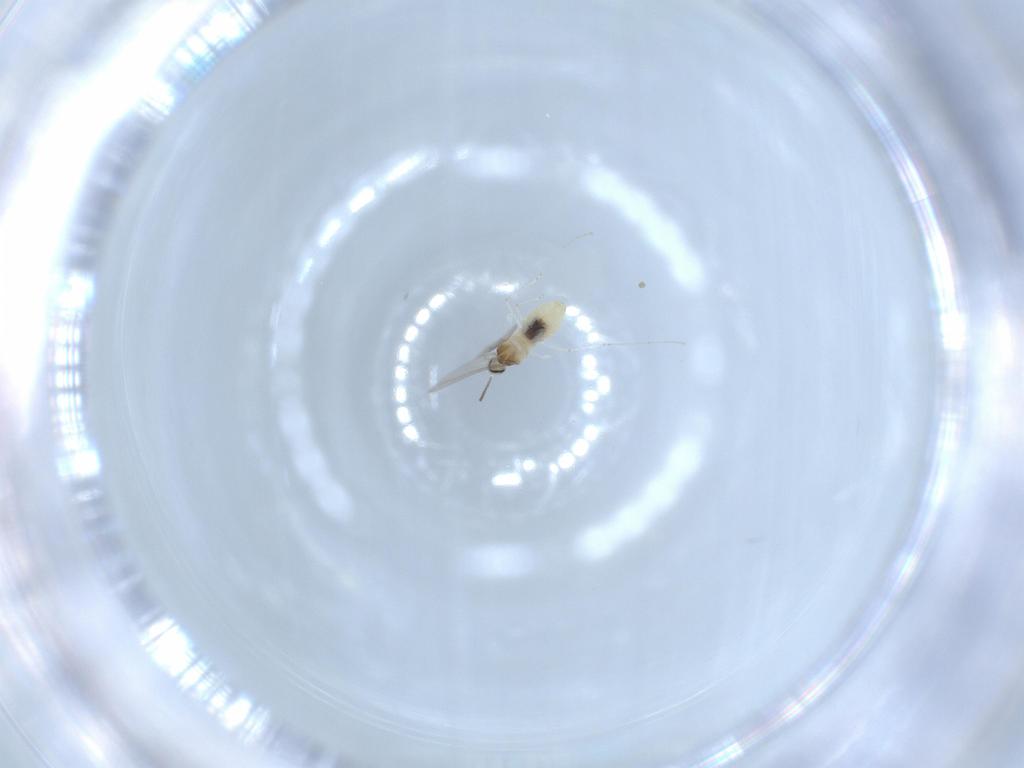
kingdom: Animalia
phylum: Arthropoda
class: Insecta
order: Diptera
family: Cecidomyiidae
